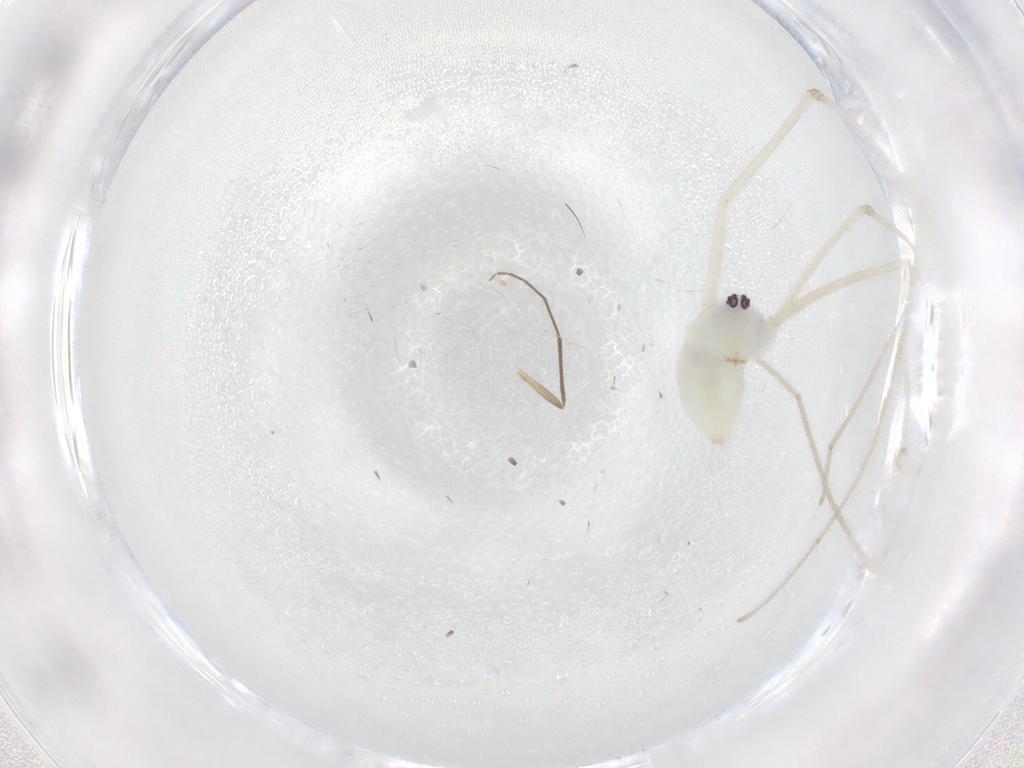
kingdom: Animalia
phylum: Arthropoda
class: Arachnida
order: Araneae
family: Pholcidae
